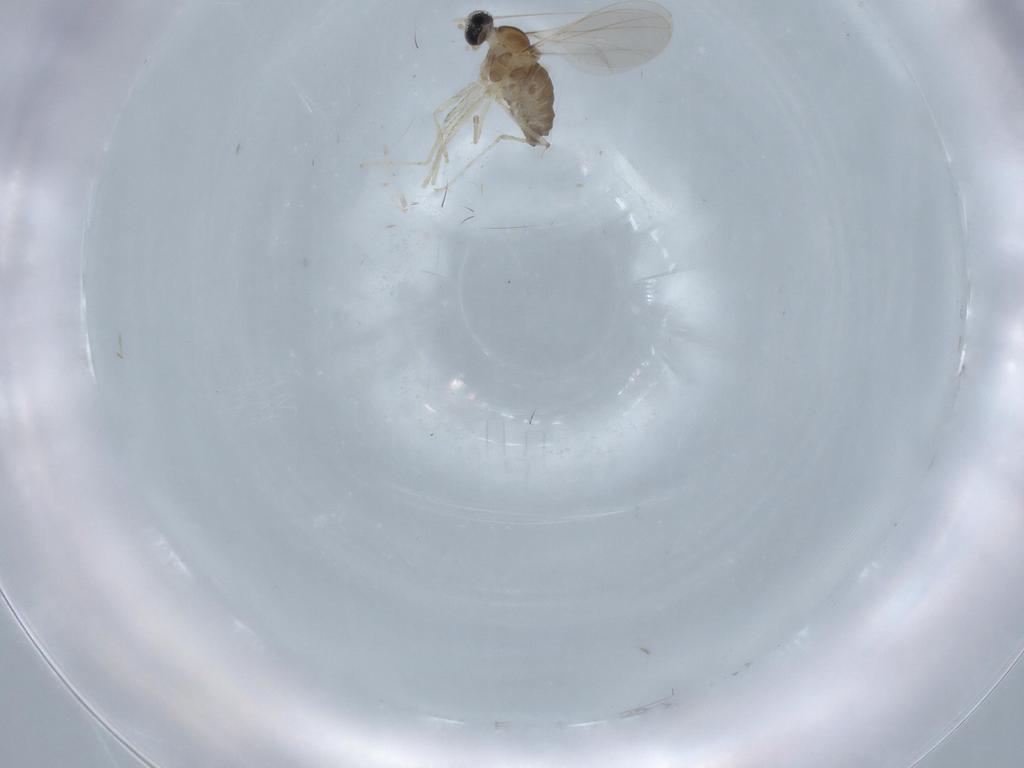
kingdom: Animalia
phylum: Arthropoda
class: Insecta
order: Diptera
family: Cecidomyiidae
